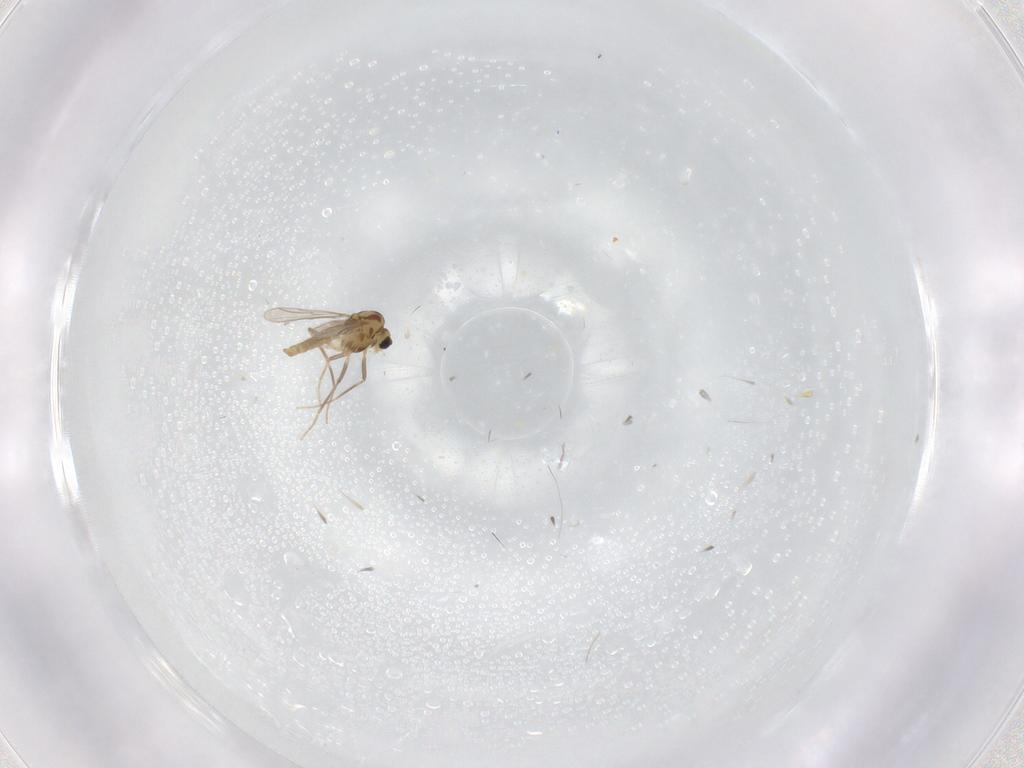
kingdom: Animalia
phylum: Arthropoda
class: Insecta
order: Diptera
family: Chironomidae
